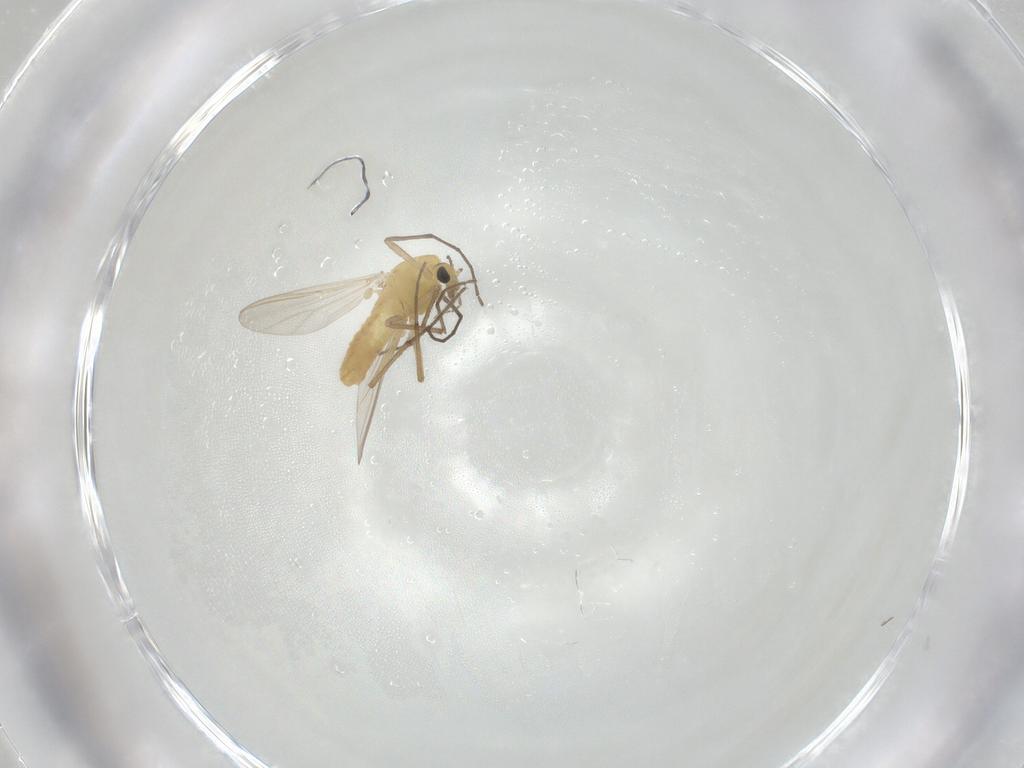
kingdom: Animalia
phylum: Arthropoda
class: Insecta
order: Diptera
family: Chironomidae
